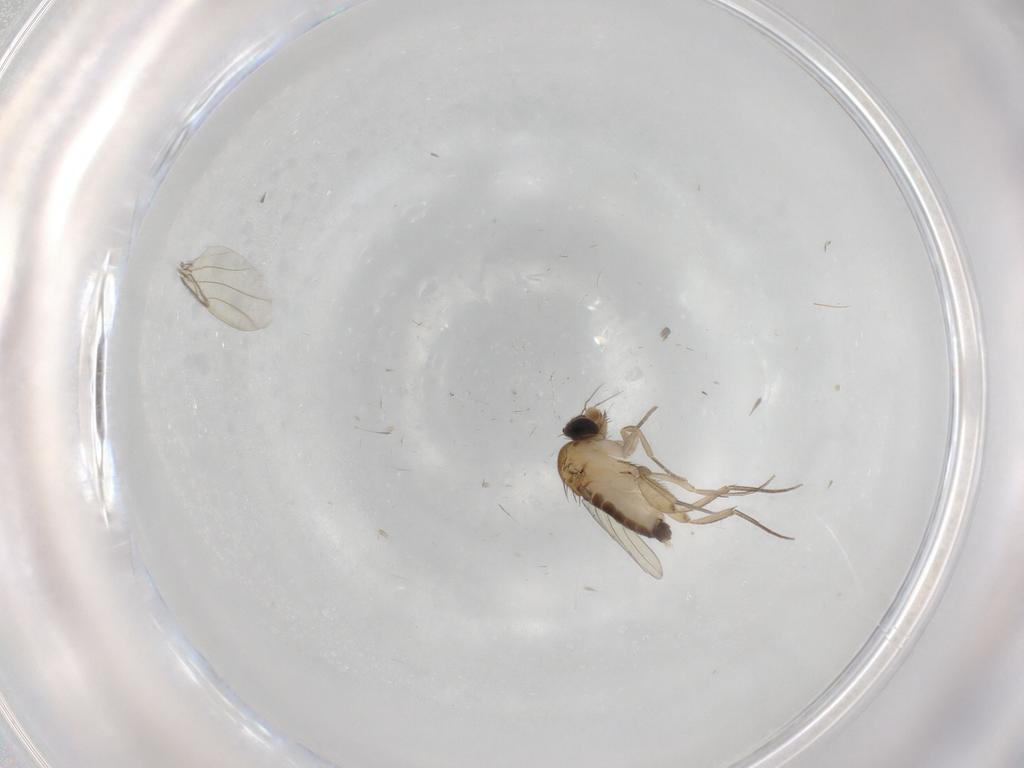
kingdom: Animalia
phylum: Arthropoda
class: Insecta
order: Diptera
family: Phoridae
